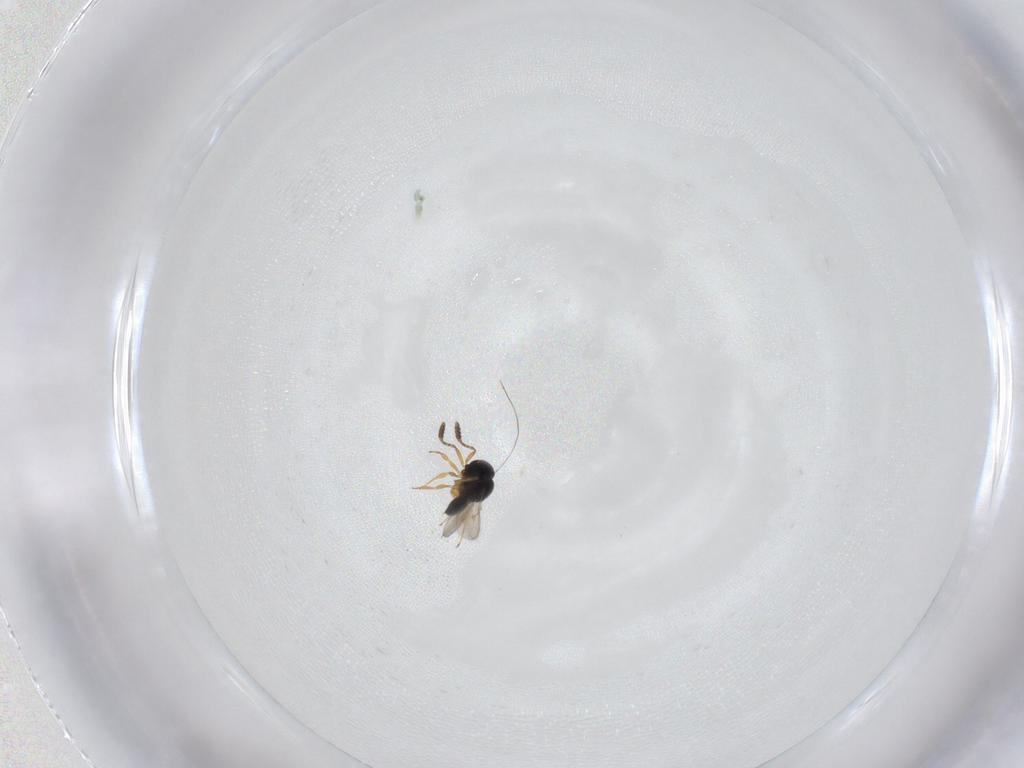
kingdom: Animalia
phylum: Arthropoda
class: Insecta
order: Hymenoptera
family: Scelionidae
